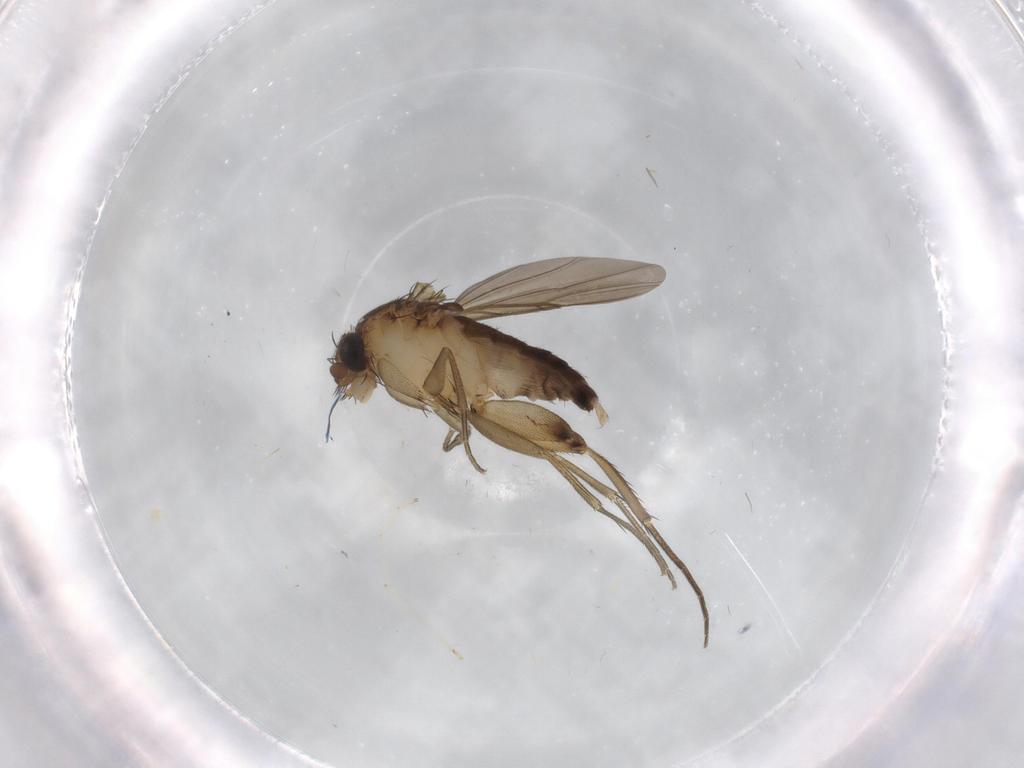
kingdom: Animalia
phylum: Arthropoda
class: Insecta
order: Diptera
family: Phoridae
